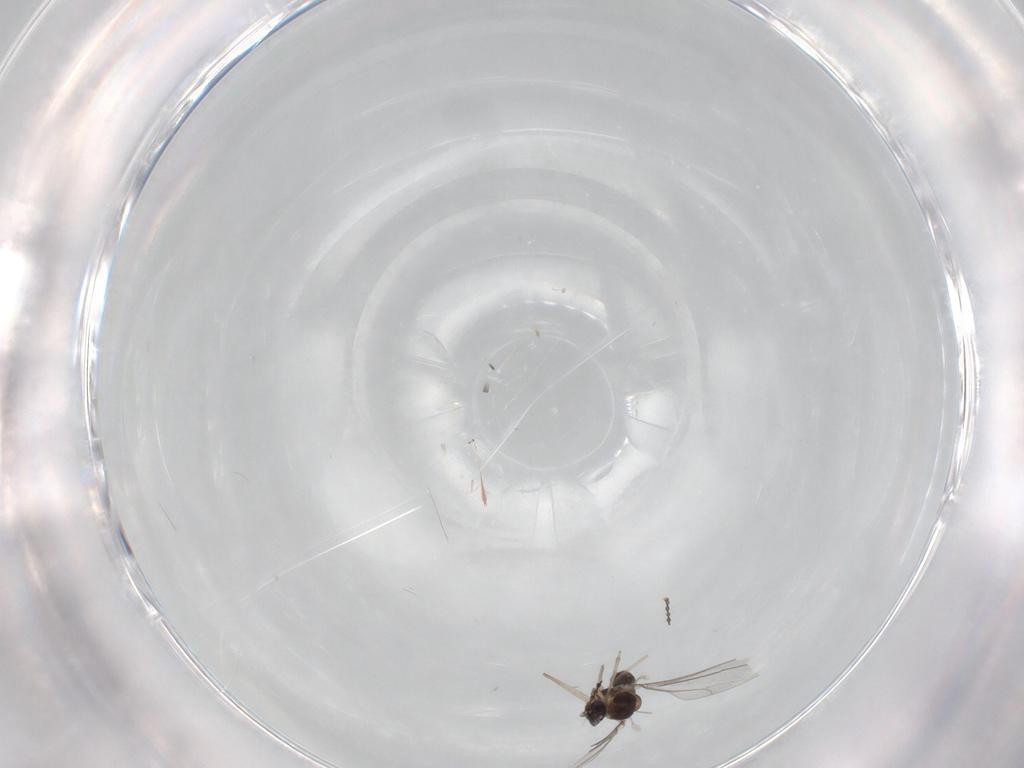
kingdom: Animalia
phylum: Arthropoda
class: Insecta
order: Diptera
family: Cecidomyiidae
